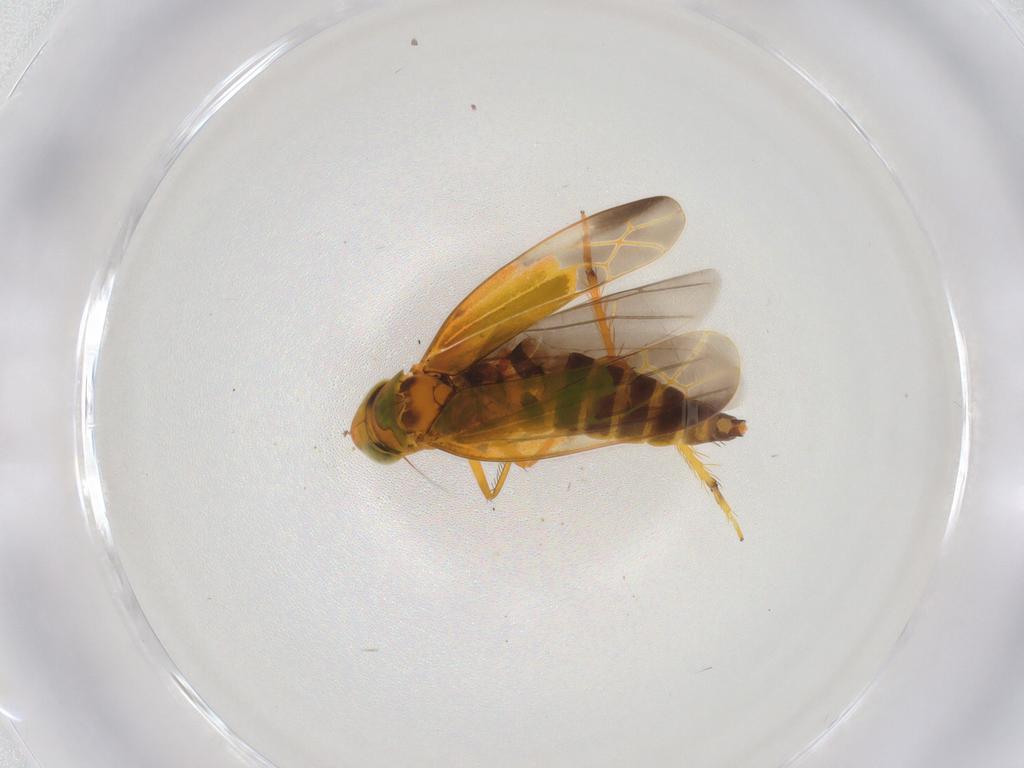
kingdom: Animalia
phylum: Arthropoda
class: Insecta
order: Hemiptera
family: Cicadellidae
